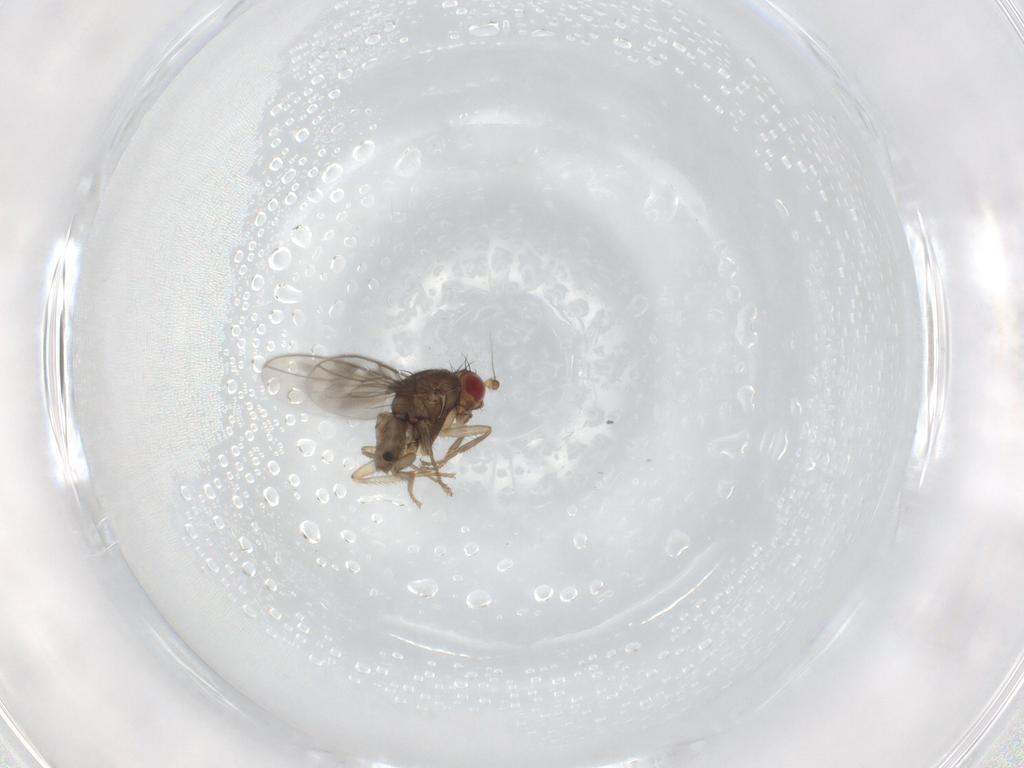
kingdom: Animalia
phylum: Arthropoda
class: Insecta
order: Diptera
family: Sphaeroceridae
